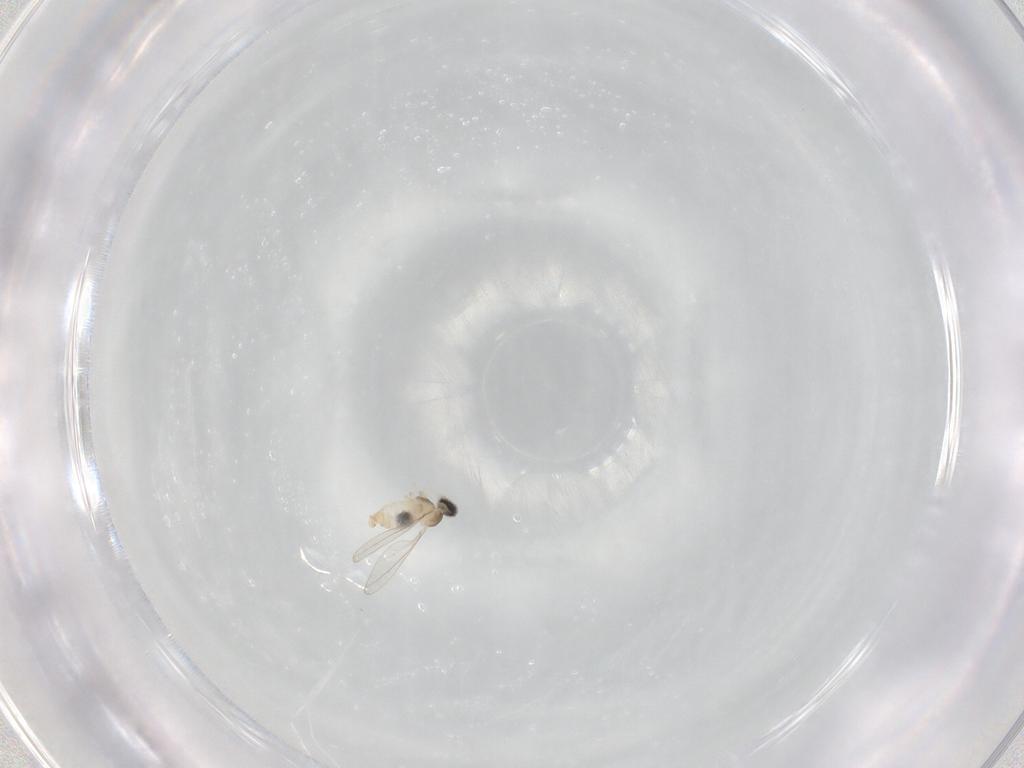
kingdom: Animalia
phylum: Arthropoda
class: Insecta
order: Diptera
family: Cecidomyiidae
